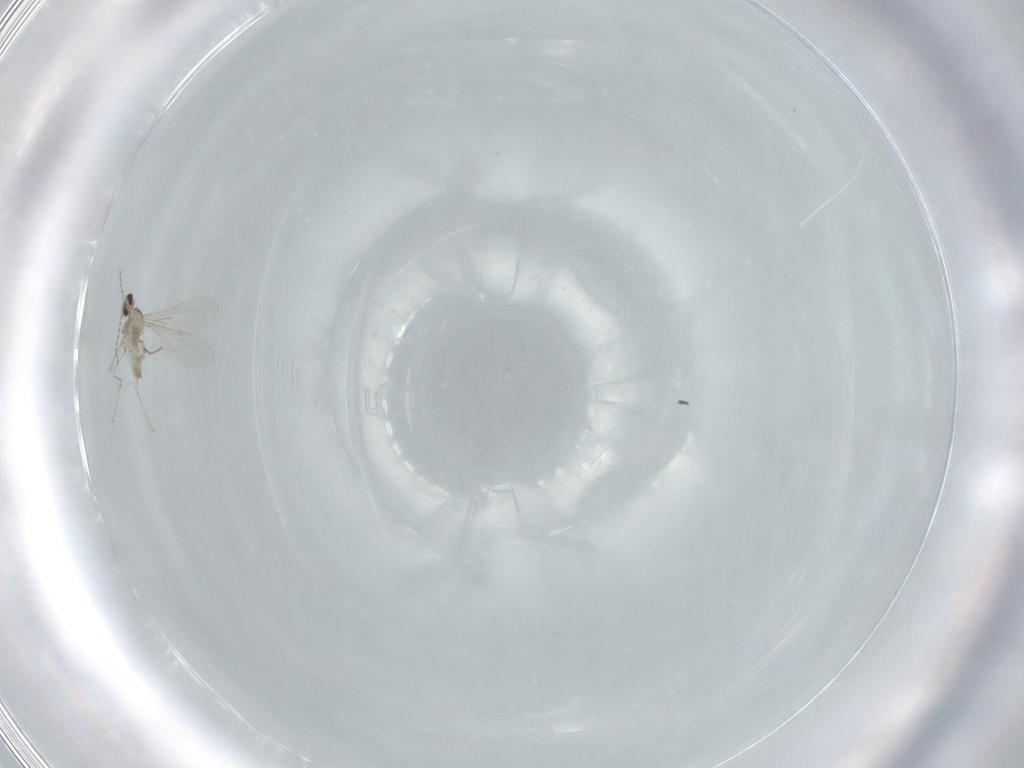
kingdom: Animalia
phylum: Arthropoda
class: Insecta
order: Diptera
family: Cecidomyiidae
